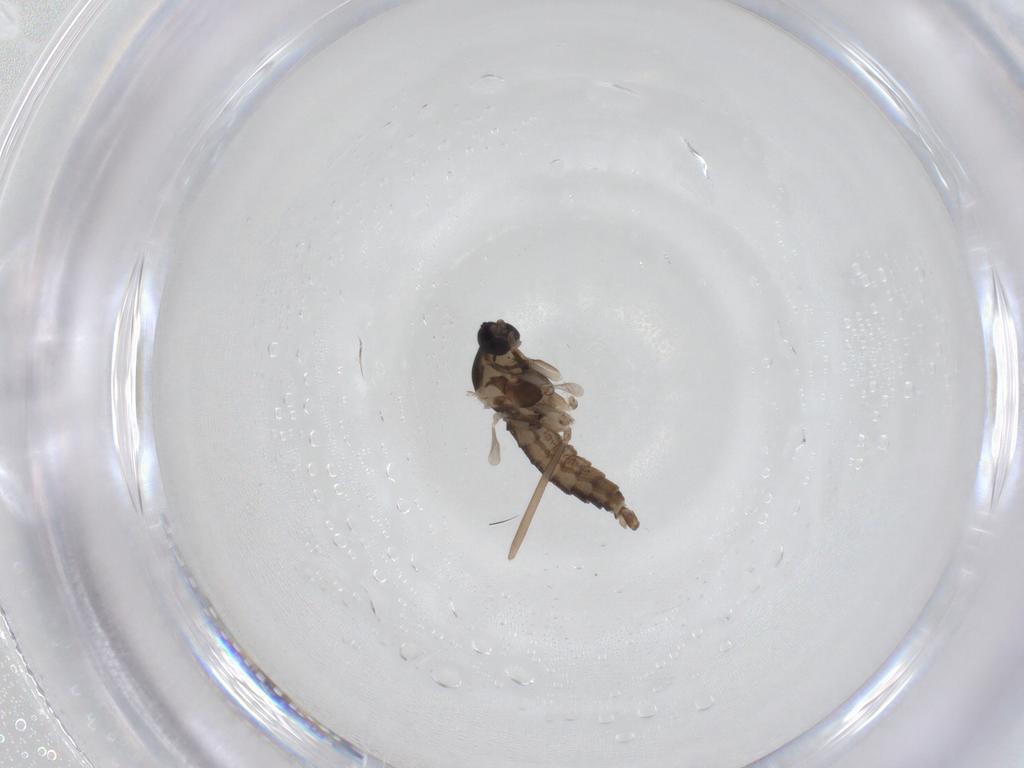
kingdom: Animalia
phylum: Arthropoda
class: Insecta
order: Diptera
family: Cecidomyiidae
